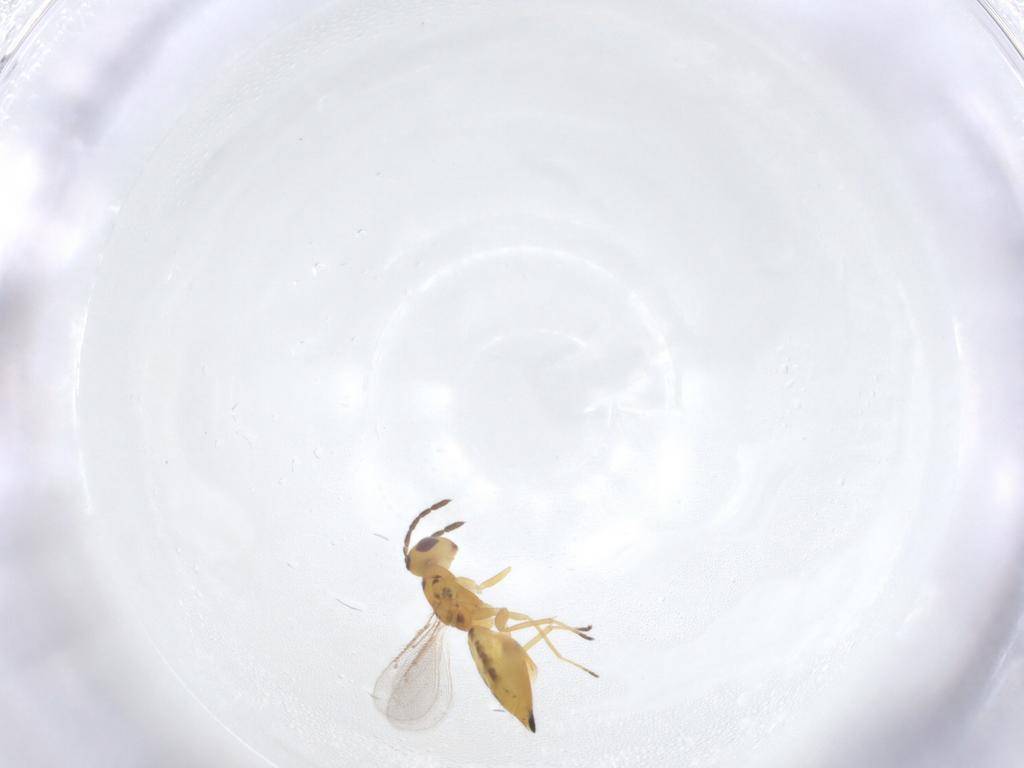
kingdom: Animalia
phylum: Arthropoda
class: Insecta
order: Hymenoptera
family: Eulophidae
